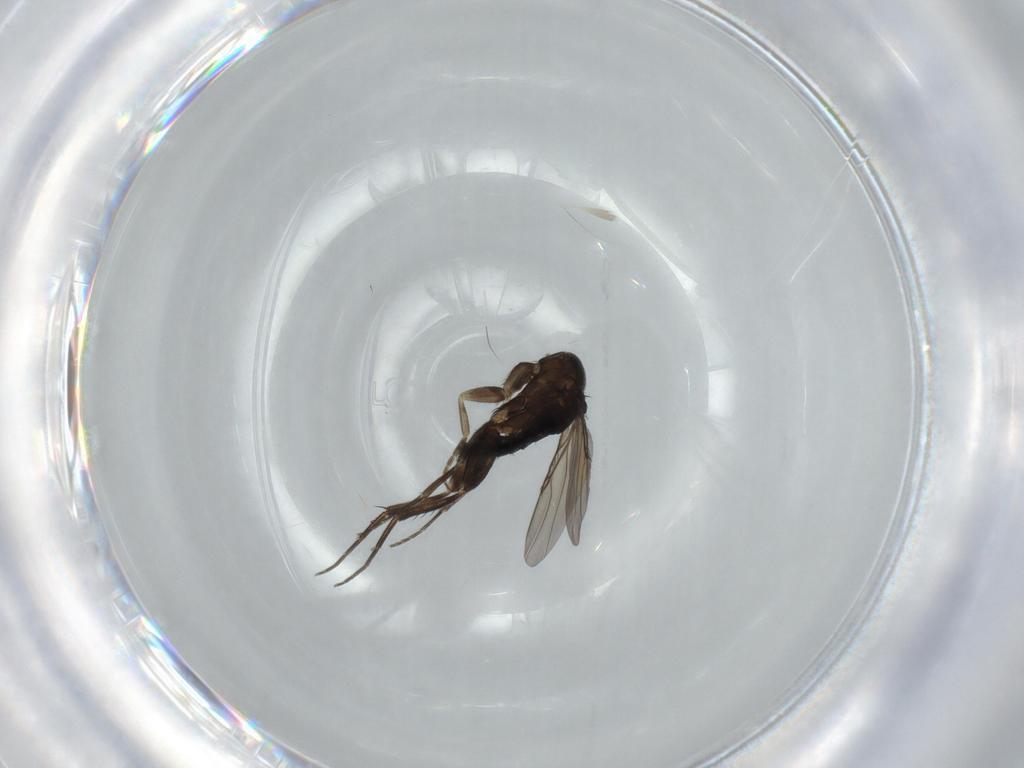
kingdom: Animalia
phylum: Arthropoda
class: Insecta
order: Diptera
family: Phoridae
